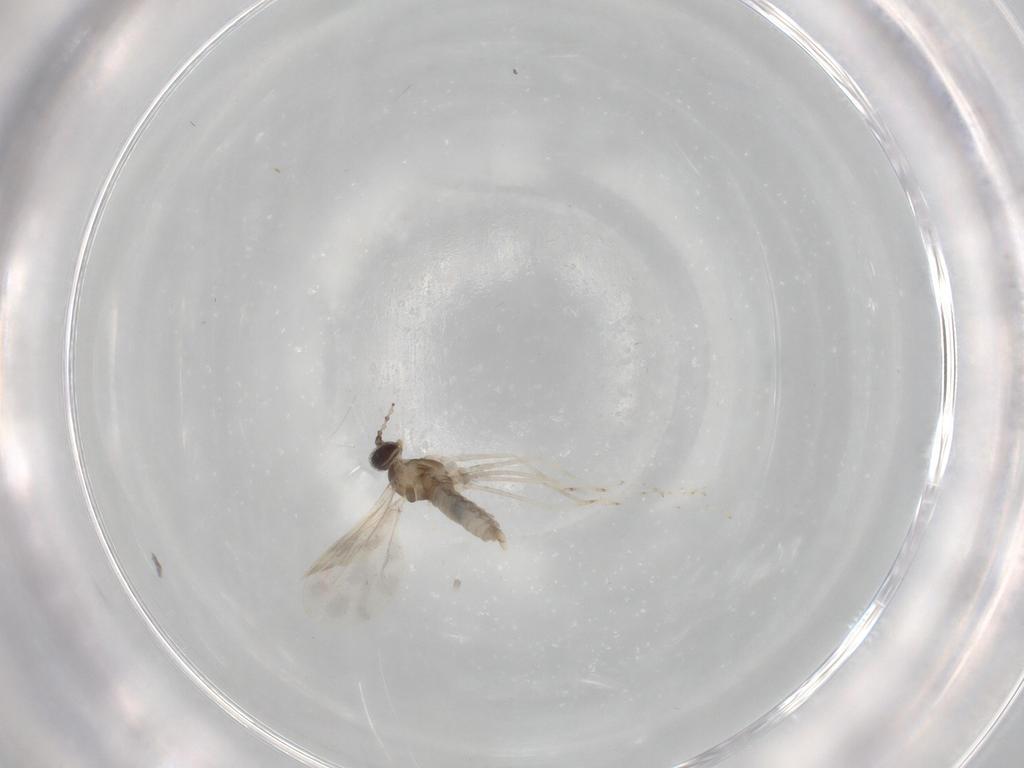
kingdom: Animalia
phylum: Arthropoda
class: Insecta
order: Diptera
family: Cecidomyiidae
